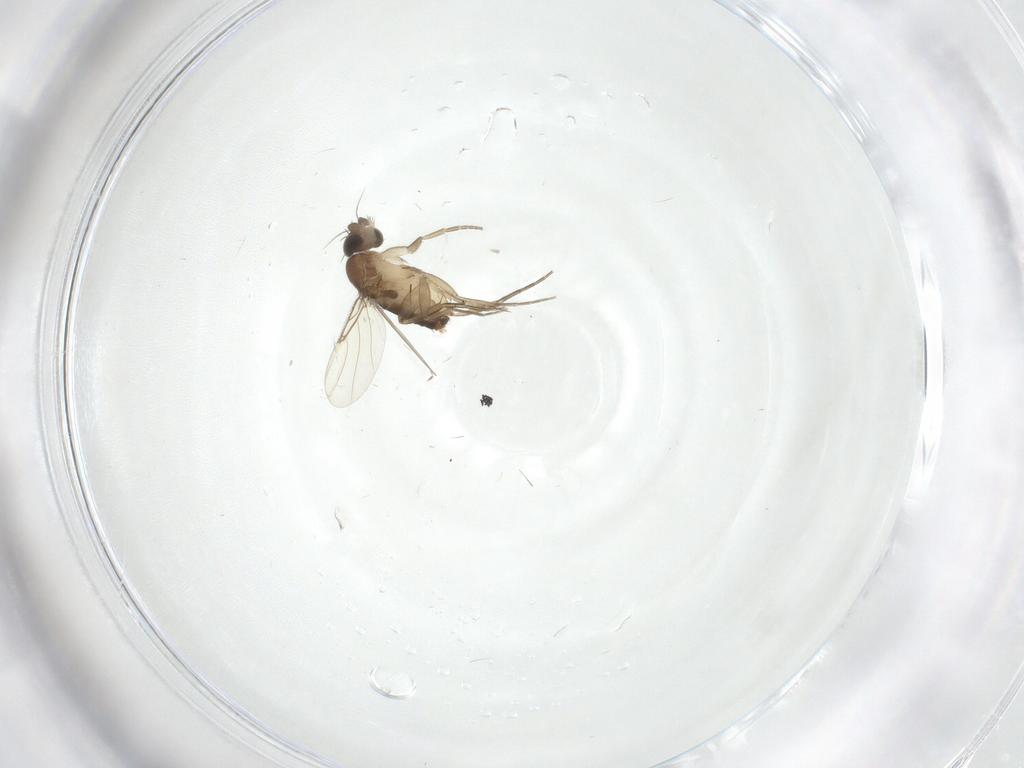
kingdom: Animalia
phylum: Arthropoda
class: Insecta
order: Diptera
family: Phoridae
